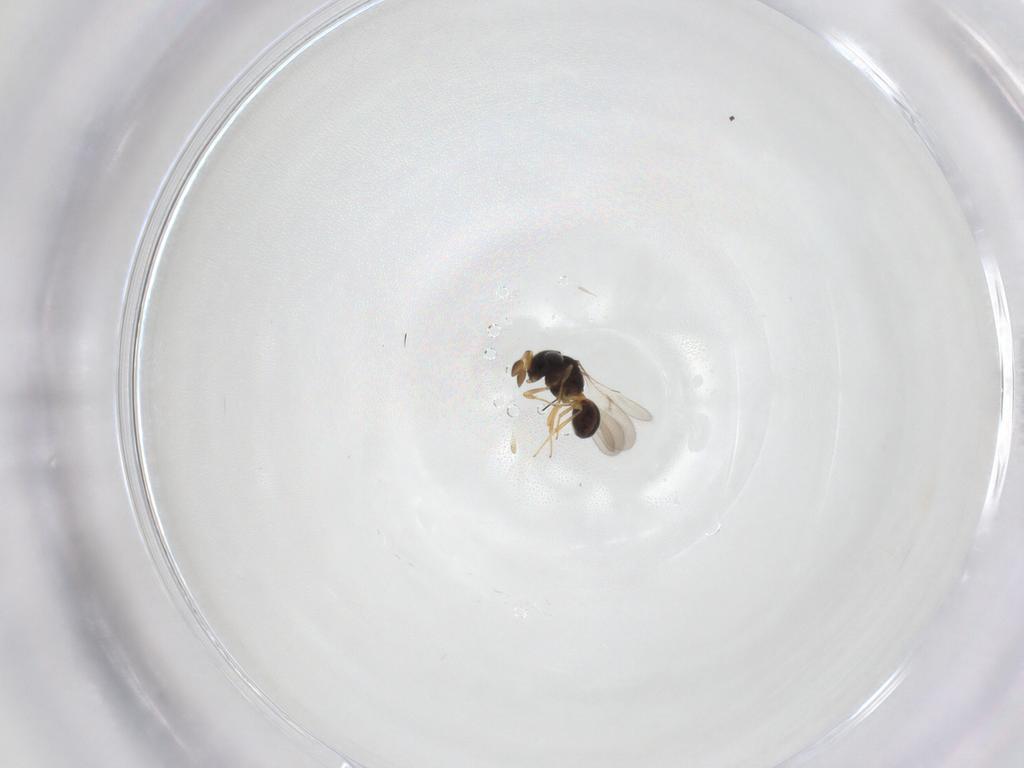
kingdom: Animalia
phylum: Arthropoda
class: Insecta
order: Hymenoptera
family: Scelionidae
